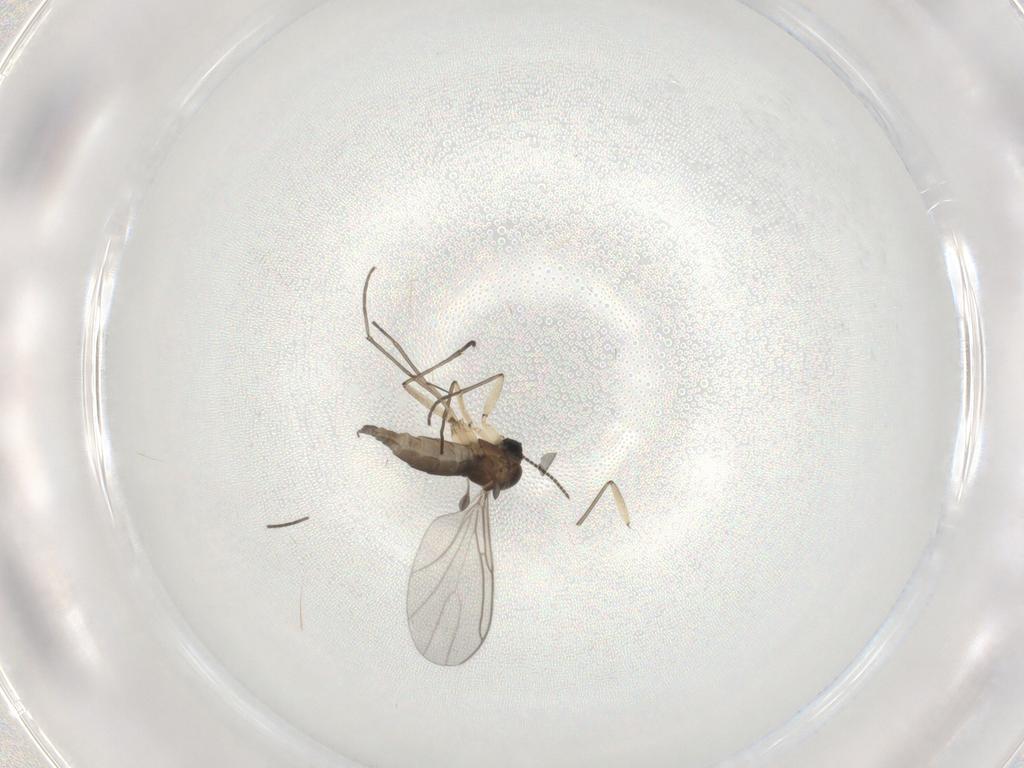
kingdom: Animalia
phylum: Arthropoda
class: Insecta
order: Diptera
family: Sciaridae
